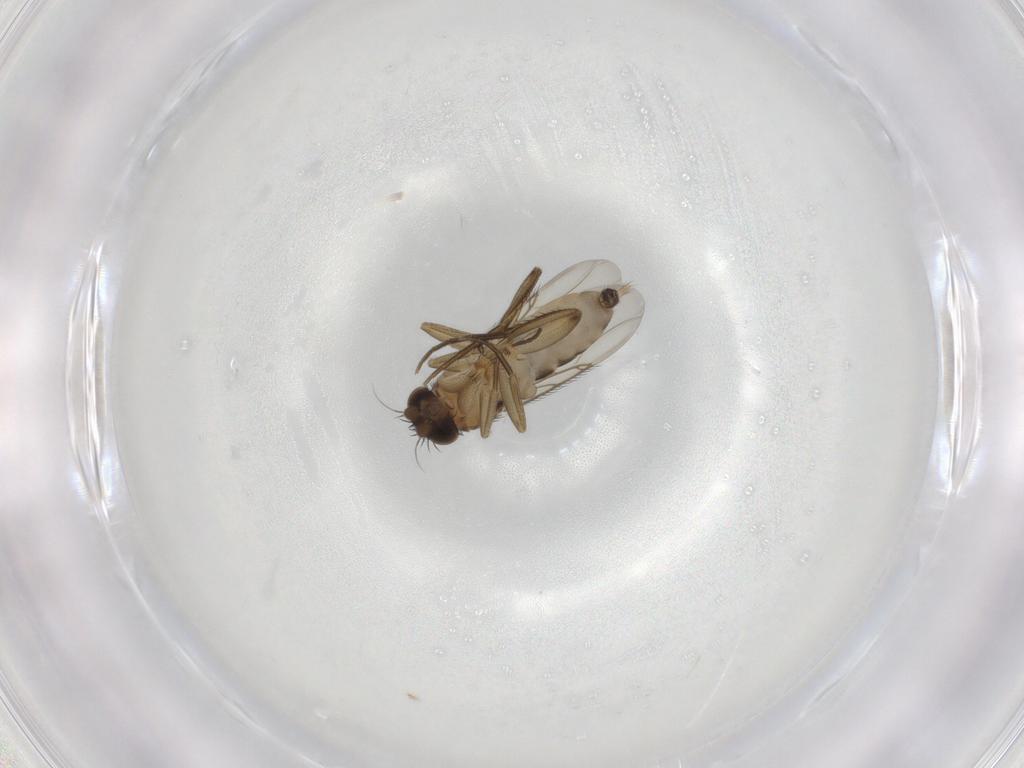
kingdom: Animalia
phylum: Arthropoda
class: Insecta
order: Diptera
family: Phoridae
